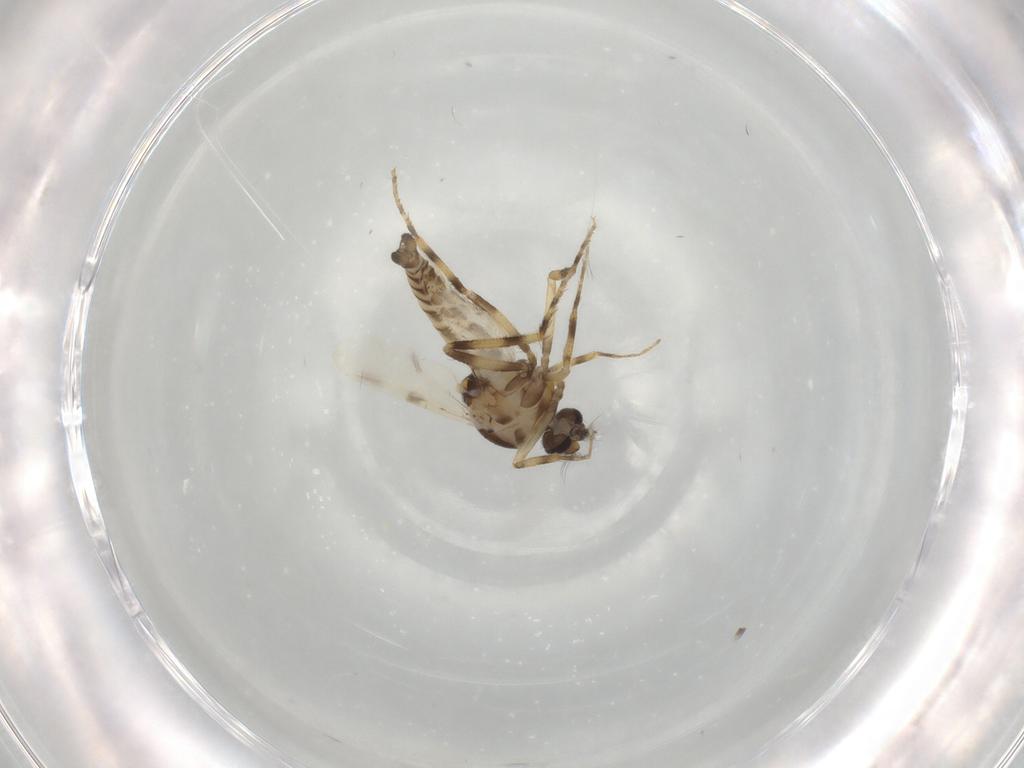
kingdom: Animalia
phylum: Arthropoda
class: Insecta
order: Diptera
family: Ceratopogonidae
